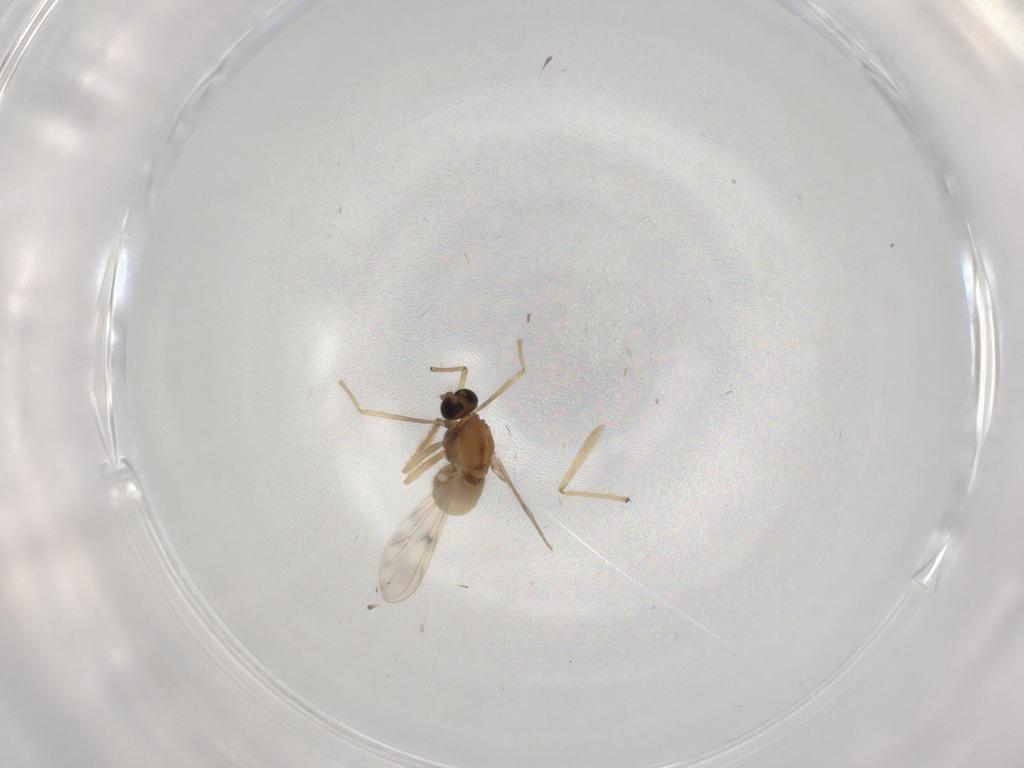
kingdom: Animalia
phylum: Arthropoda
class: Insecta
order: Diptera
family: Chironomidae
